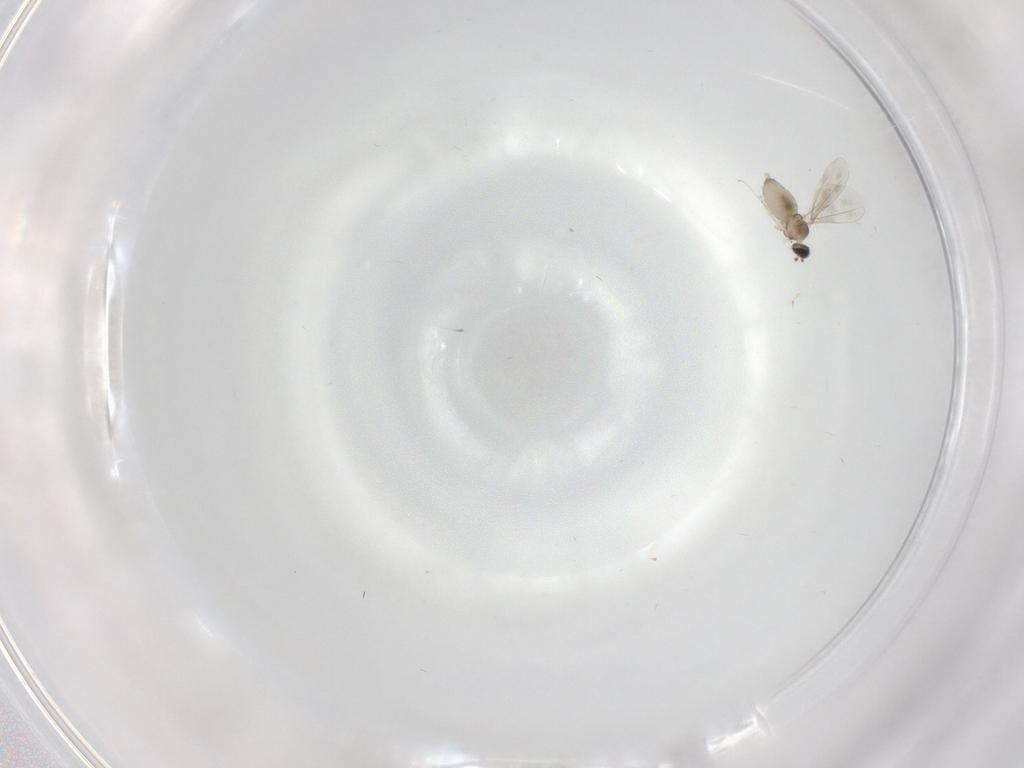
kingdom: Animalia
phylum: Arthropoda
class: Insecta
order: Diptera
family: Cecidomyiidae
